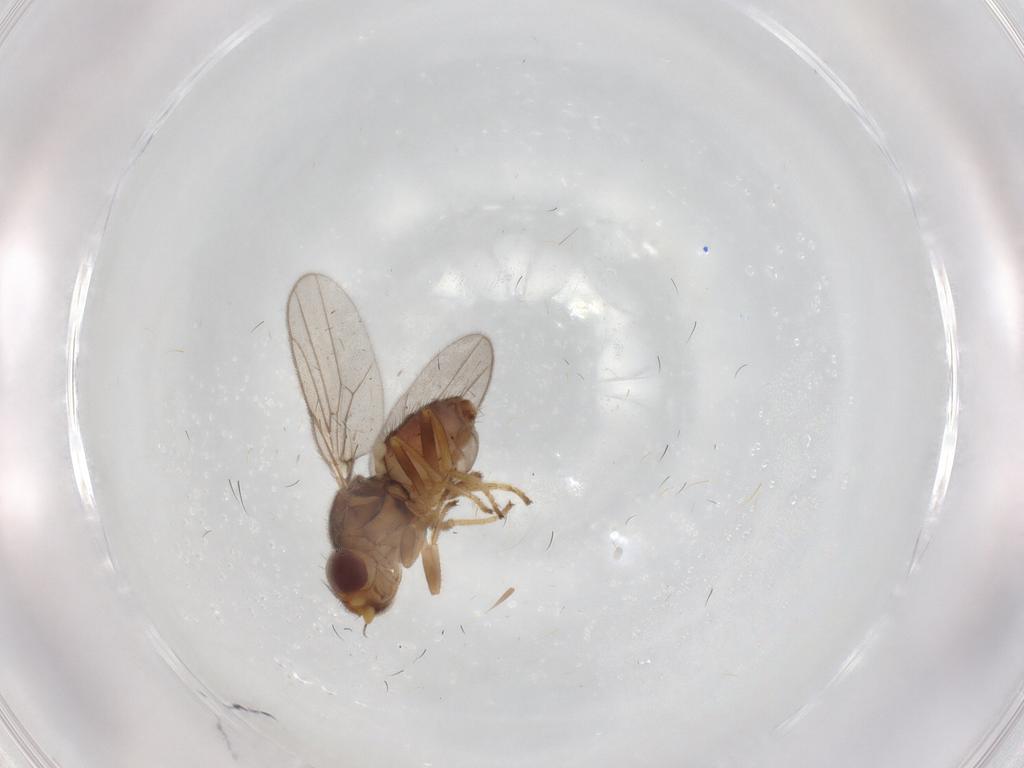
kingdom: Animalia
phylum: Arthropoda
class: Insecta
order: Diptera
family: Chloropidae
